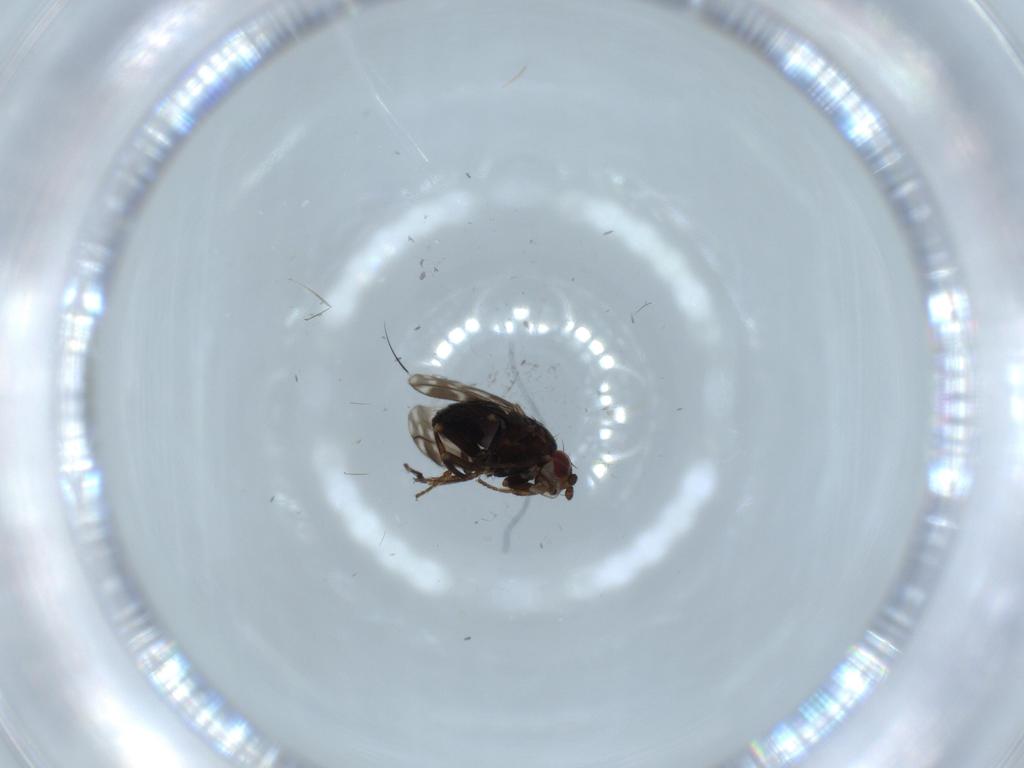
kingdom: Animalia
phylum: Arthropoda
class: Insecta
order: Diptera
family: Sphaeroceridae
